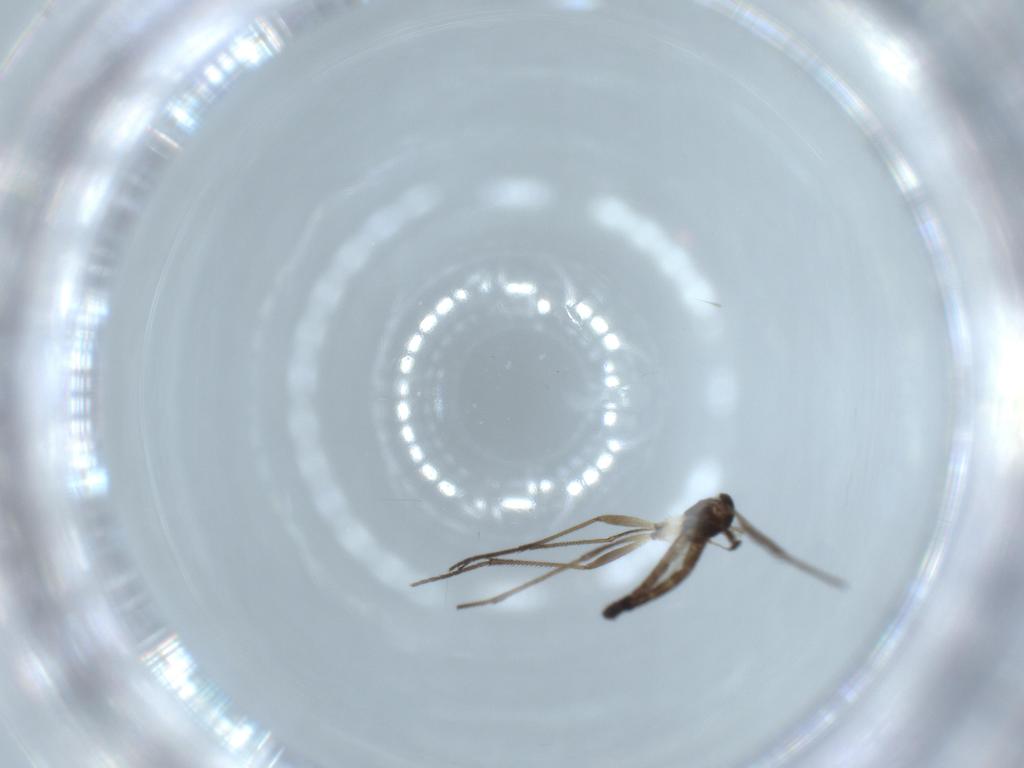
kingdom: Animalia
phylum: Arthropoda
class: Insecta
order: Diptera
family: Sciaridae
